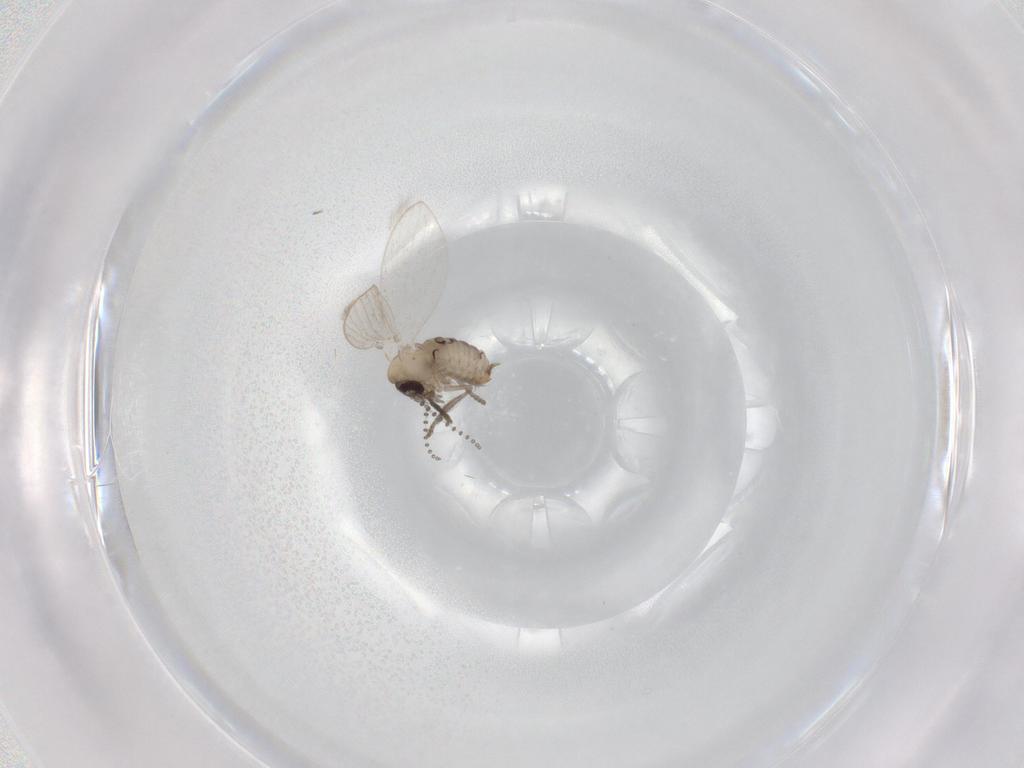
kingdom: Animalia
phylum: Arthropoda
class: Insecta
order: Diptera
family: Psychodidae
